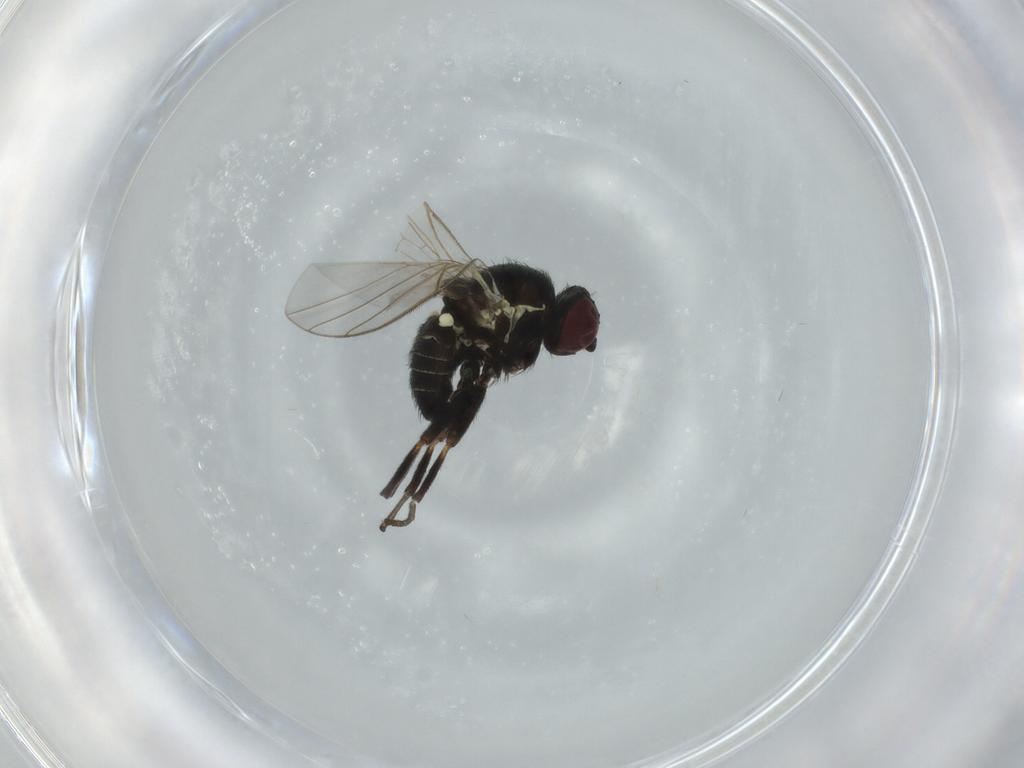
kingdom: Animalia
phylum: Arthropoda
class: Insecta
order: Diptera
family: Agromyzidae
